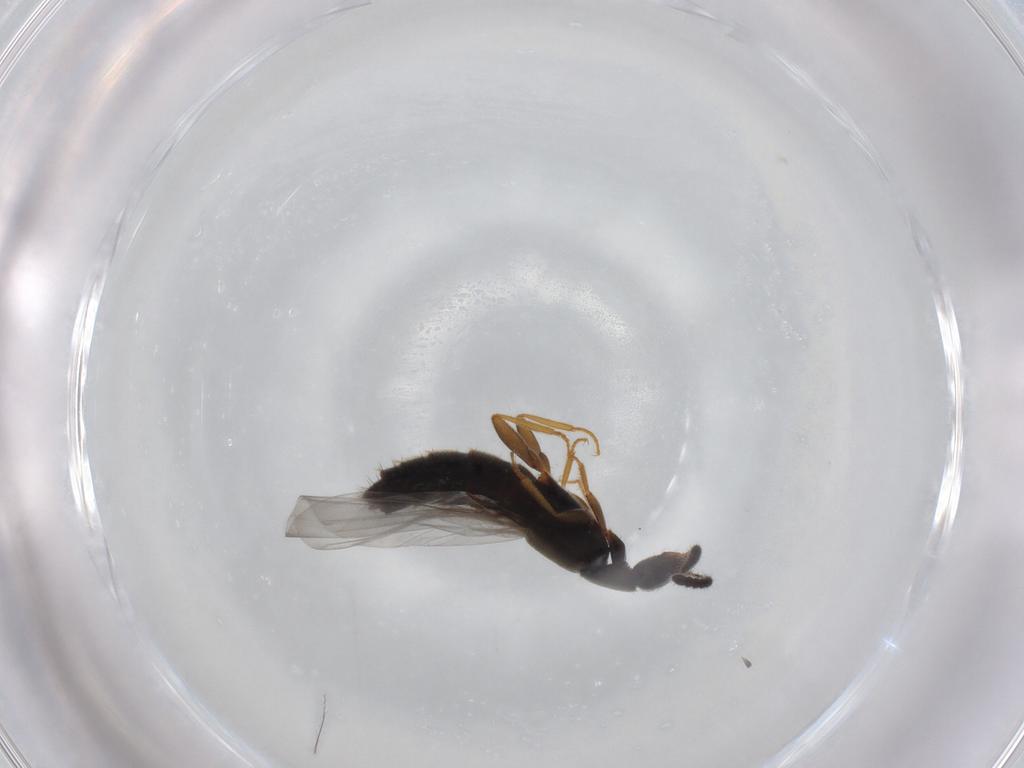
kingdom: Animalia
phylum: Arthropoda
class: Insecta
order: Coleoptera
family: Staphylinidae
